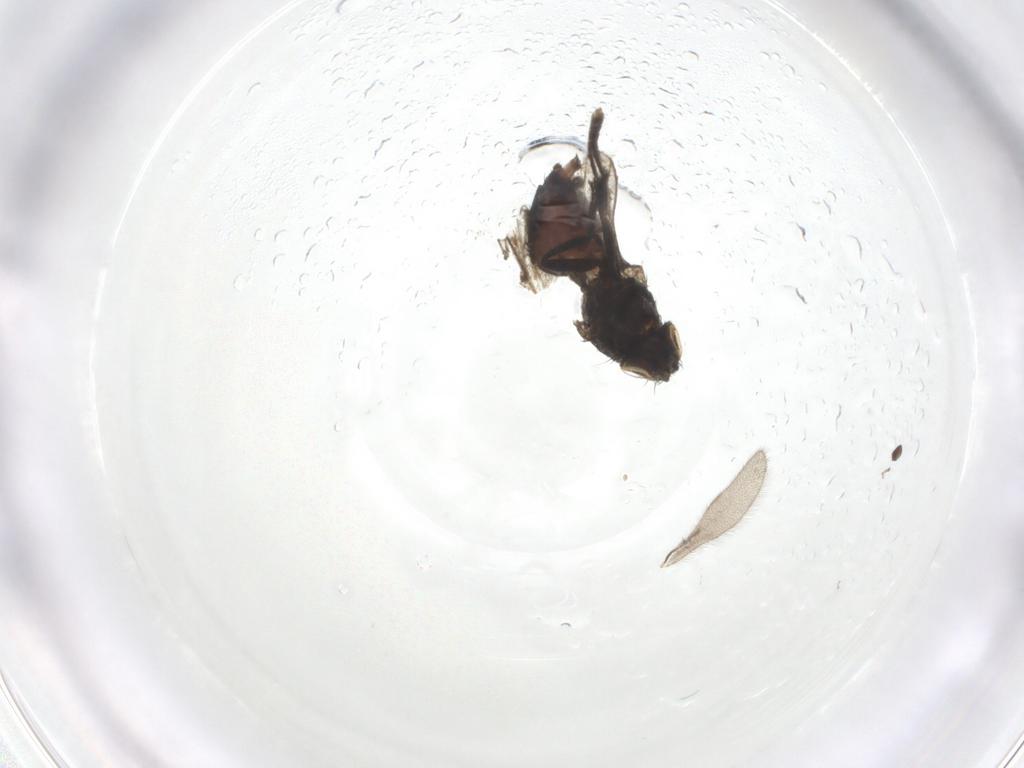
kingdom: Animalia
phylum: Arthropoda
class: Insecta
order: Diptera
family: Chironomidae
